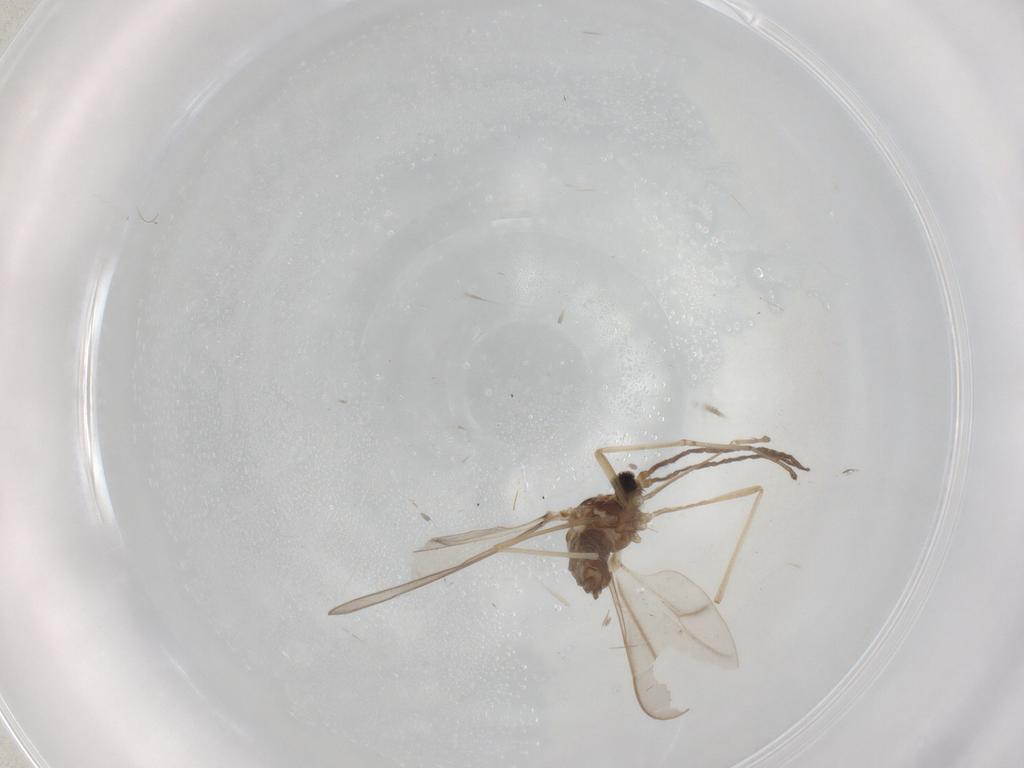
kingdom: Animalia
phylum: Arthropoda
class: Insecta
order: Diptera
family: Cecidomyiidae
